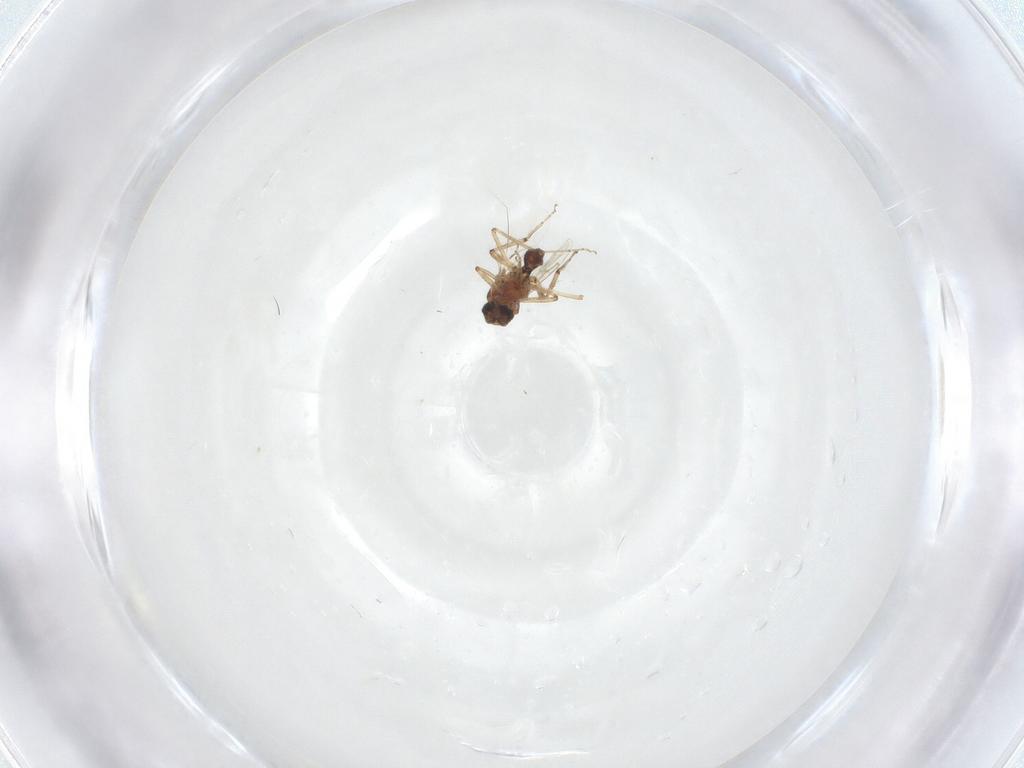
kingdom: Animalia
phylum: Arthropoda
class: Insecta
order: Diptera
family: Ceratopogonidae
